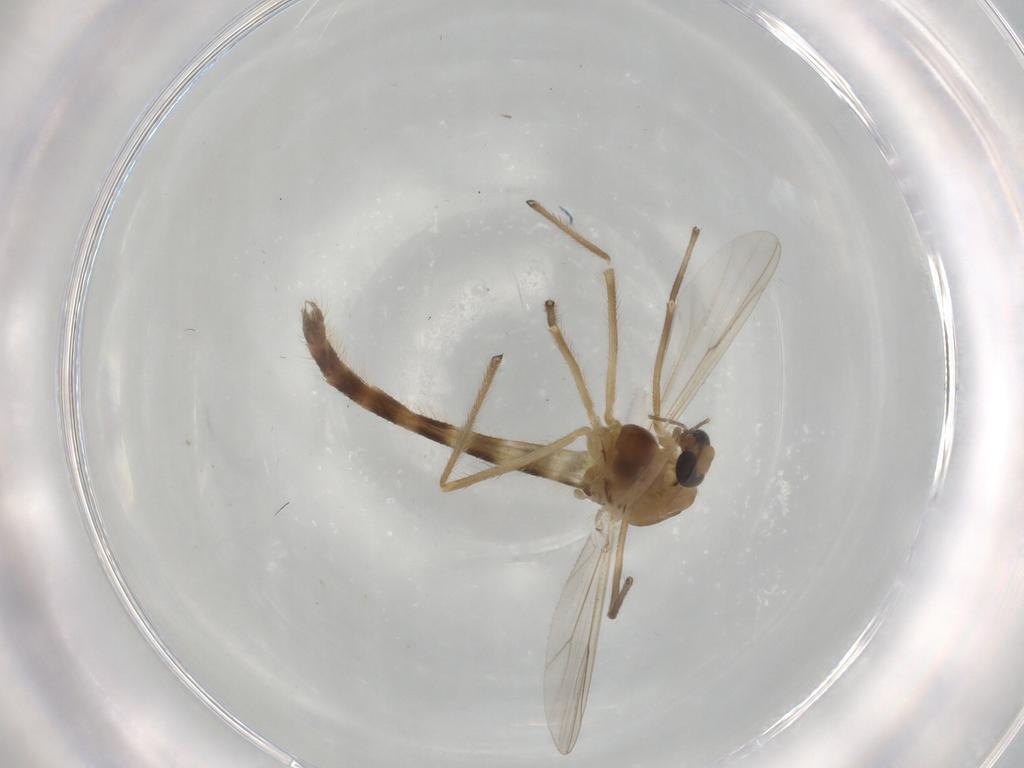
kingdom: Animalia
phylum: Arthropoda
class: Insecta
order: Diptera
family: Chironomidae
